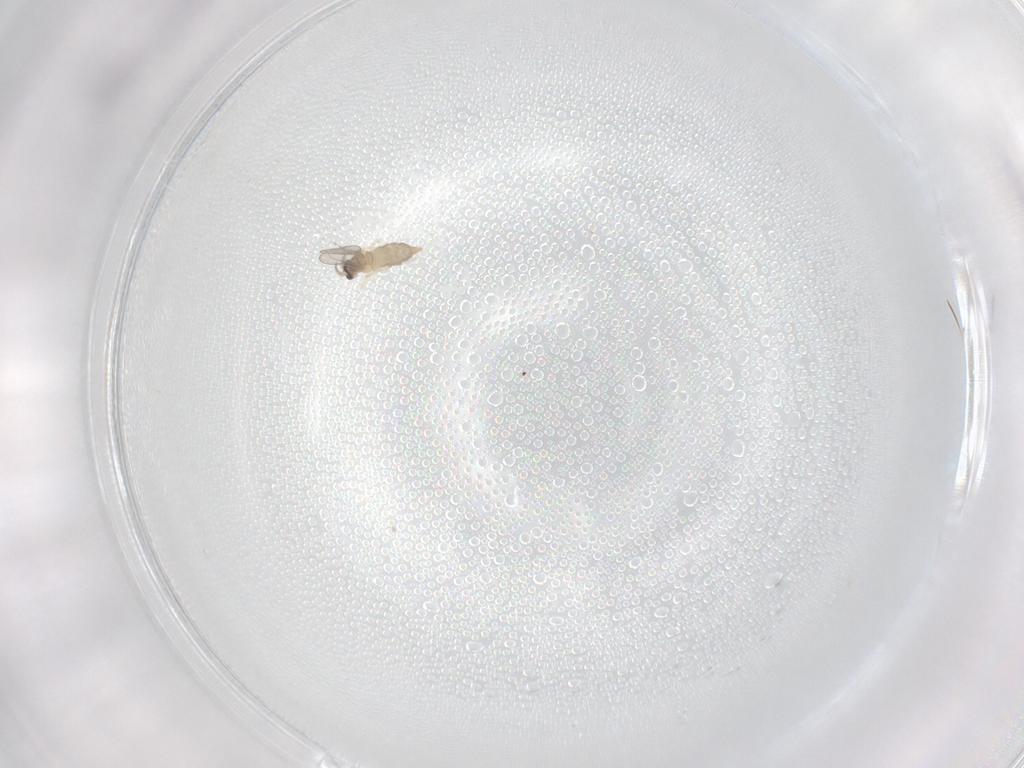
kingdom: Animalia
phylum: Arthropoda
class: Insecta
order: Diptera
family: Cecidomyiidae
